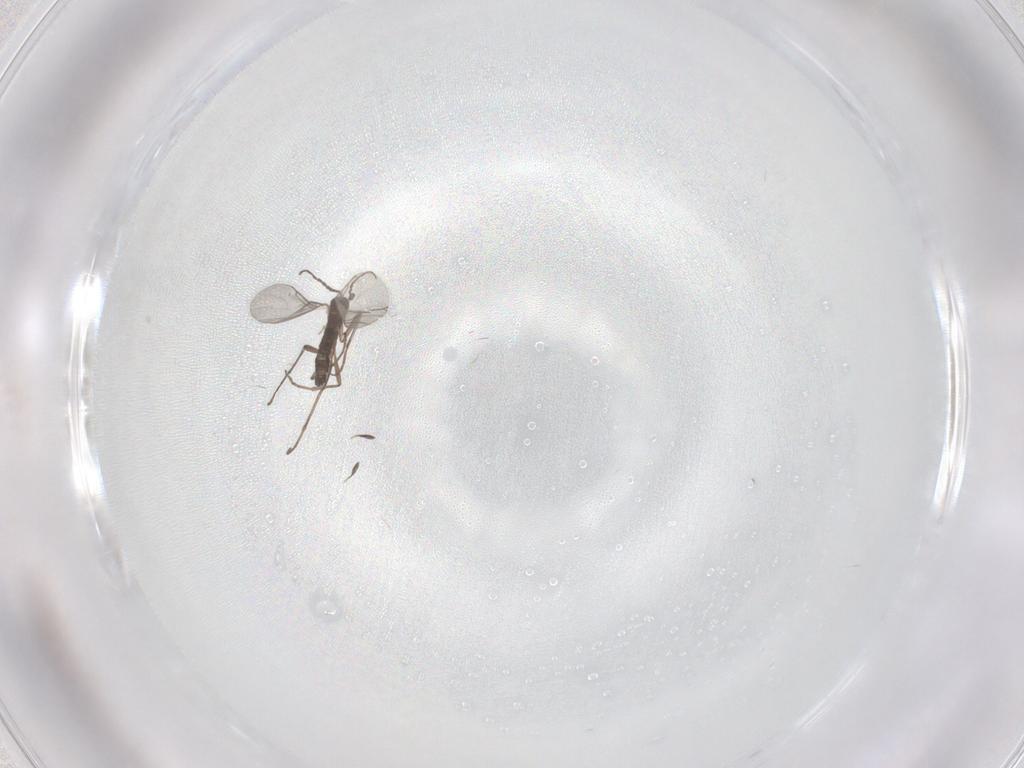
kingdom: Animalia
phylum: Arthropoda
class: Insecta
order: Diptera
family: Sciaridae
